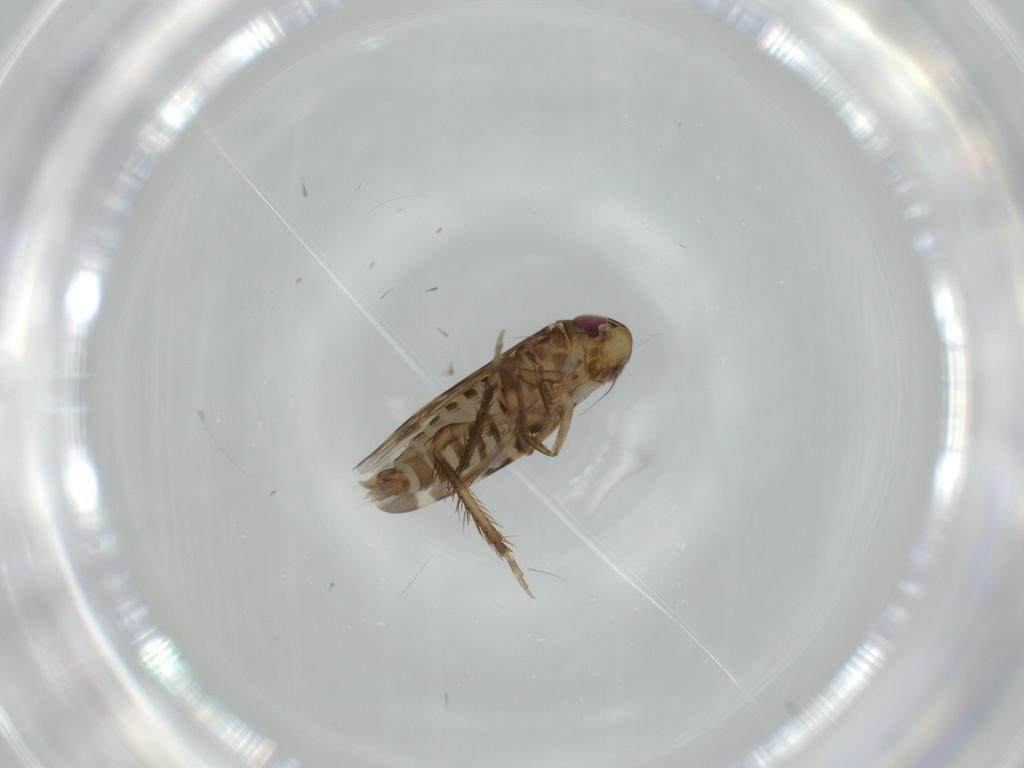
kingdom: Animalia
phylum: Arthropoda
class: Insecta
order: Hemiptera
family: Cicadellidae
